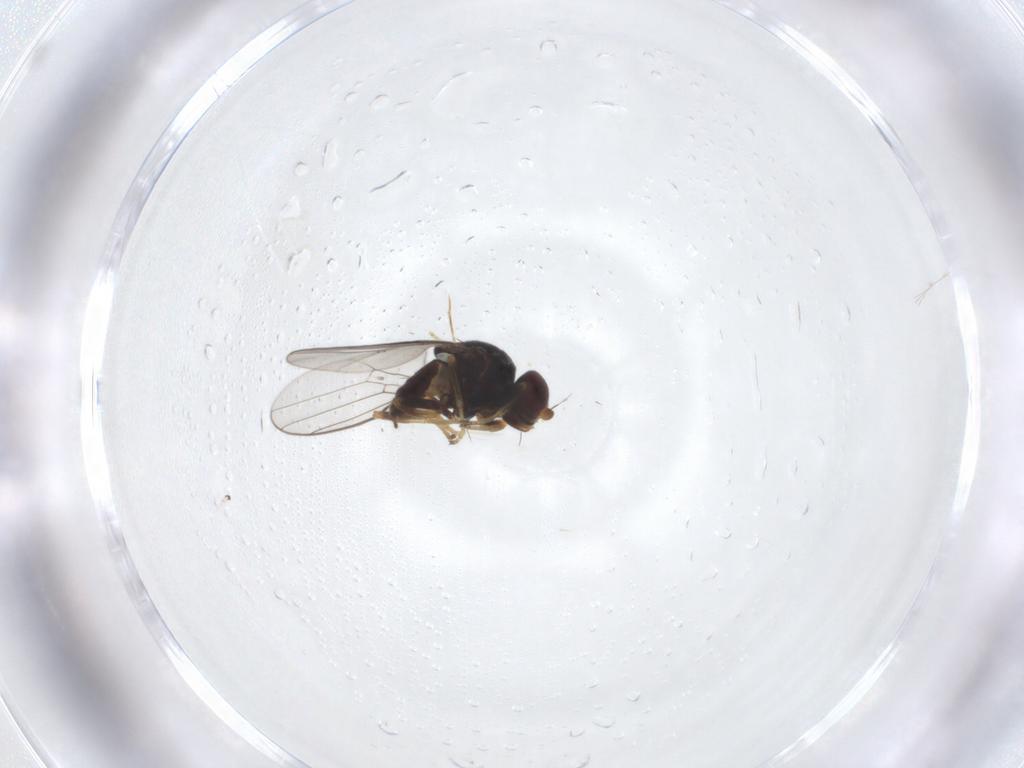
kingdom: Animalia
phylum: Arthropoda
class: Insecta
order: Diptera
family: Chloropidae
